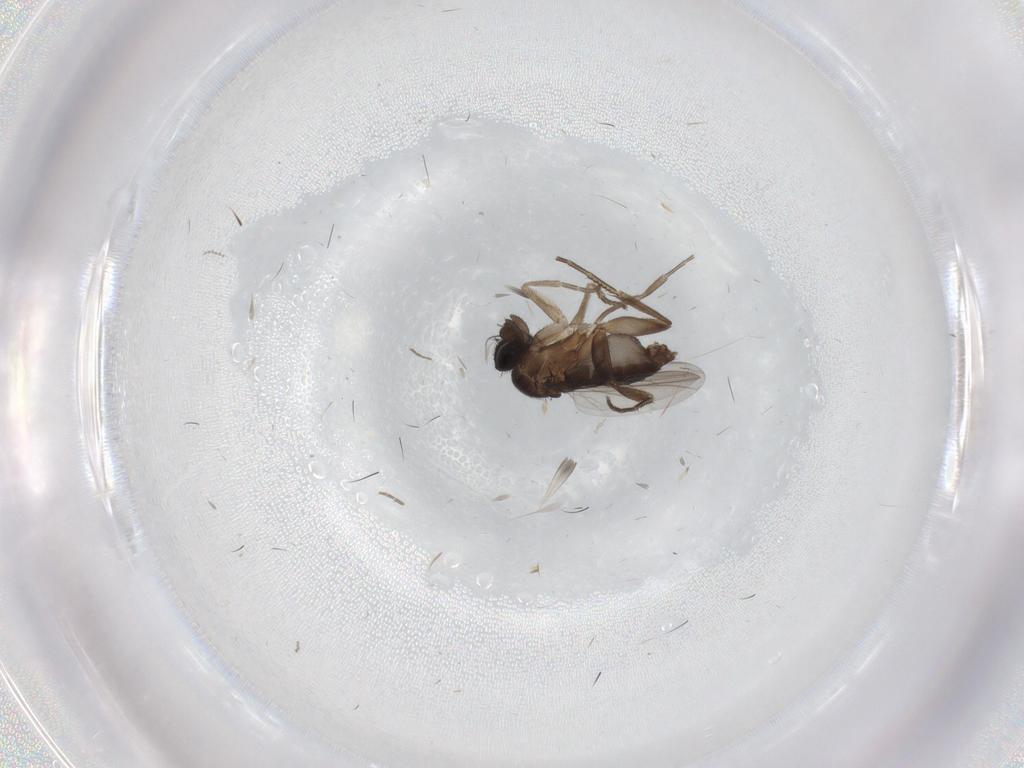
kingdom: Animalia
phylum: Arthropoda
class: Insecta
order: Diptera
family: Phoridae
